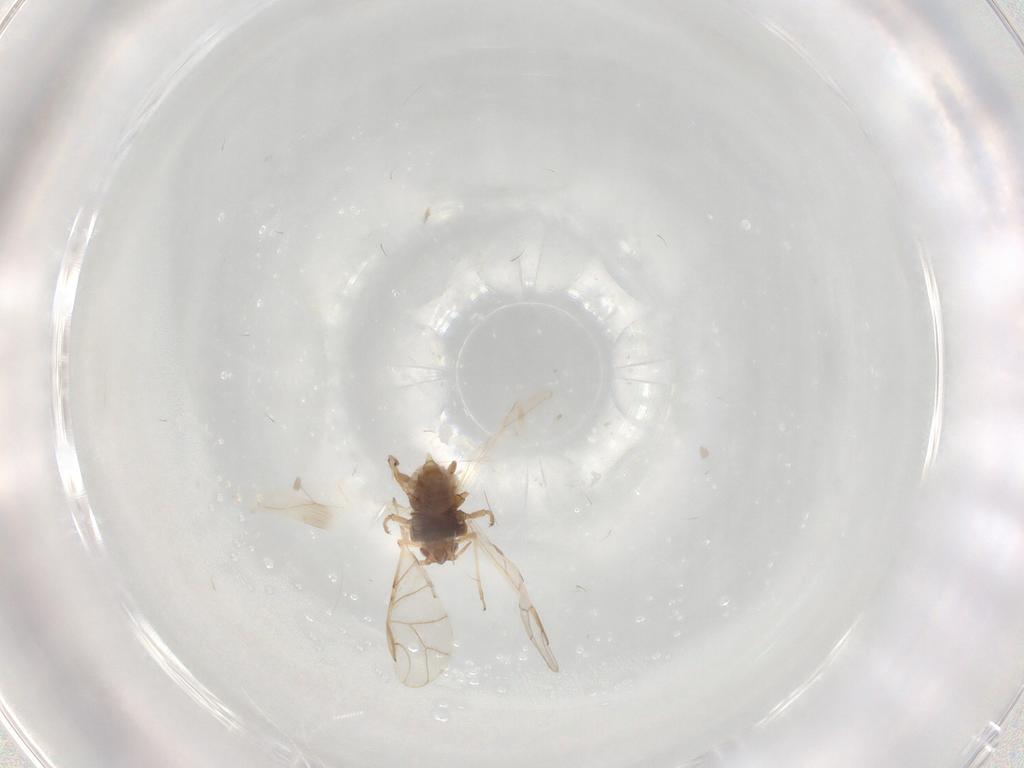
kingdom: Animalia
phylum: Arthropoda
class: Insecta
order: Hemiptera
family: Aphididae
